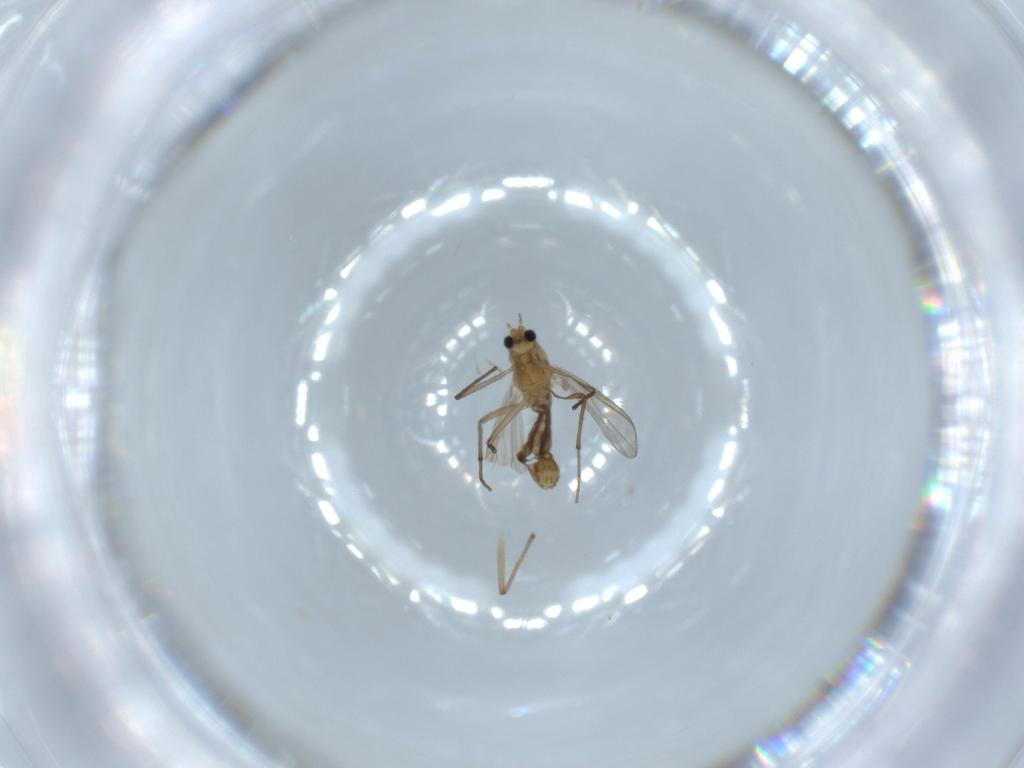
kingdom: Animalia
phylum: Arthropoda
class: Insecta
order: Diptera
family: Chironomidae
